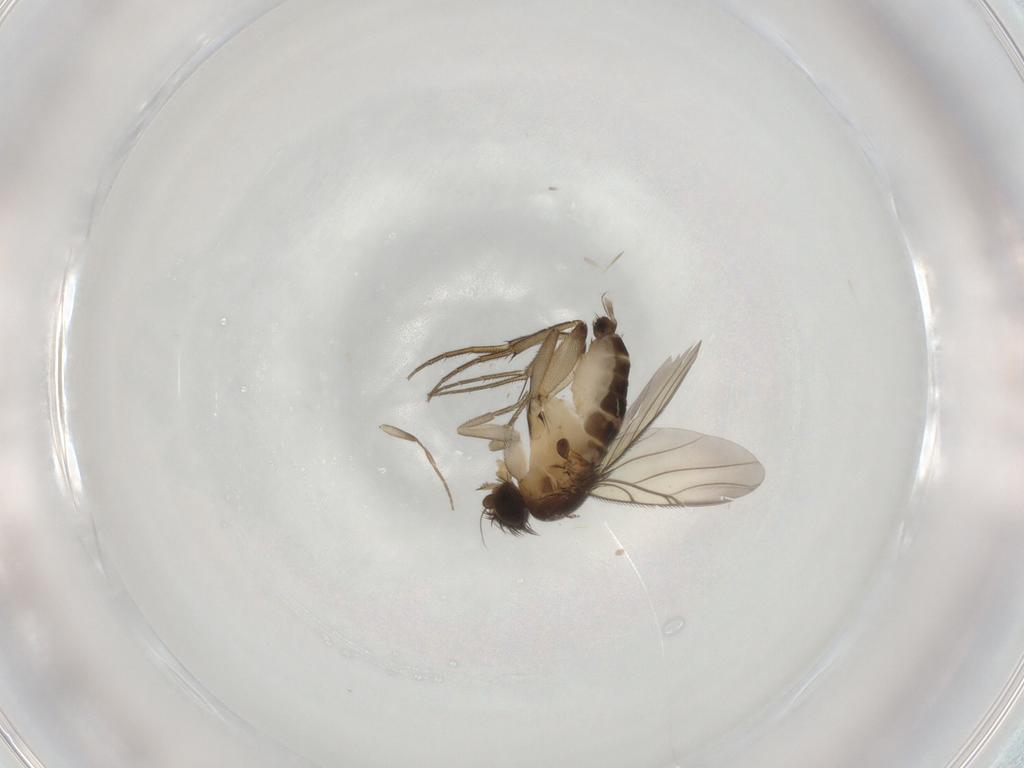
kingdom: Animalia
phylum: Arthropoda
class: Insecta
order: Diptera
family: Phoridae
